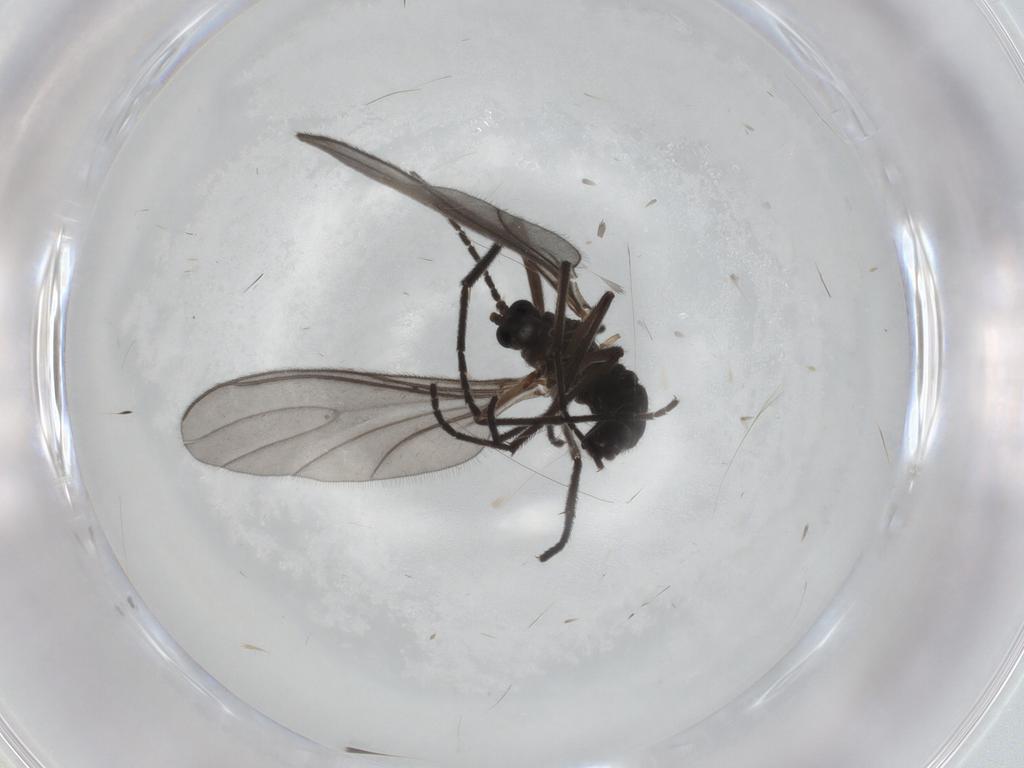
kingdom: Animalia
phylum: Arthropoda
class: Insecta
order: Diptera
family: Sciaridae
